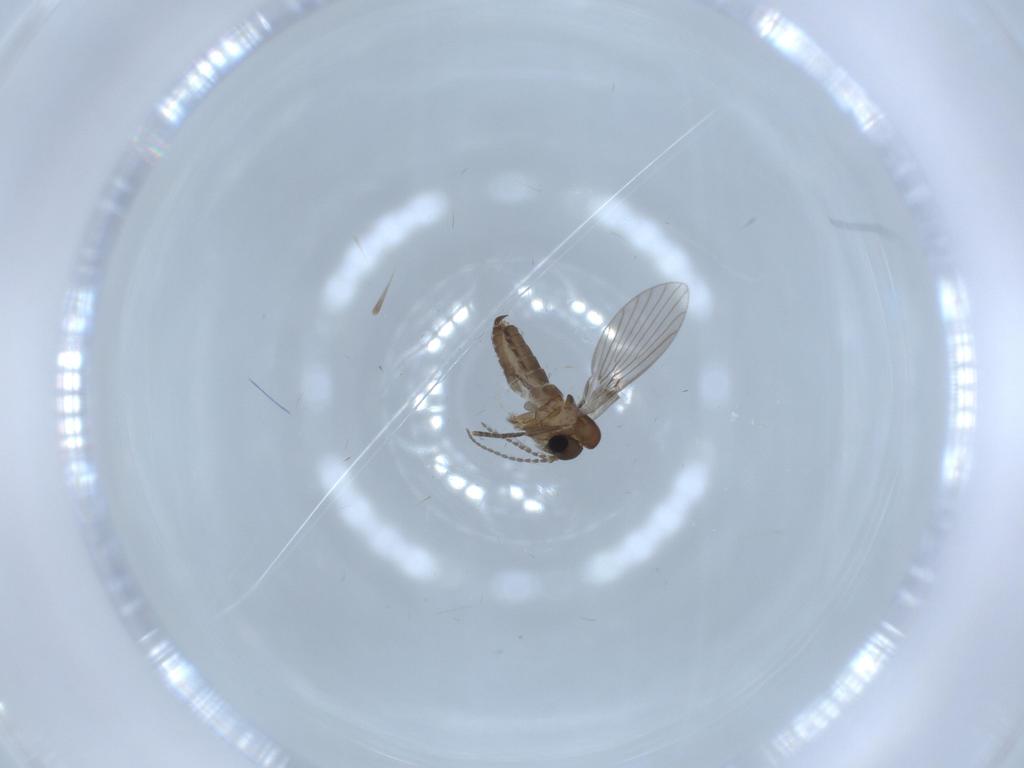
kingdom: Animalia
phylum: Arthropoda
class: Insecta
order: Diptera
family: Psychodidae
